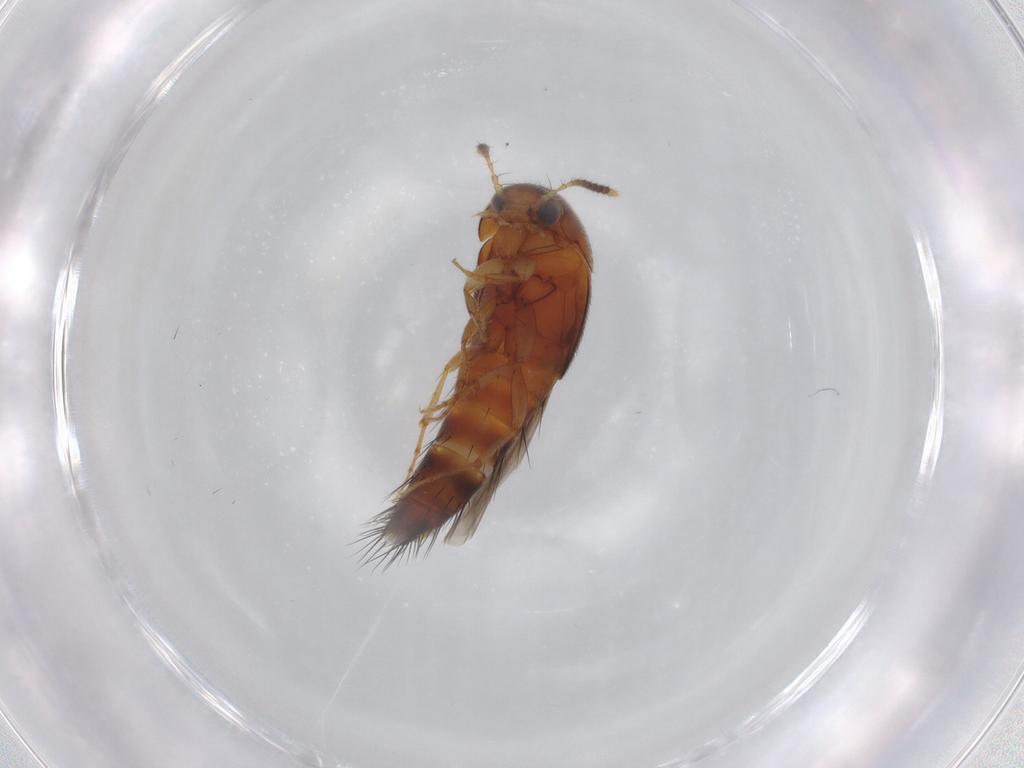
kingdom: Animalia
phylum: Arthropoda
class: Insecta
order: Coleoptera
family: Staphylinidae
